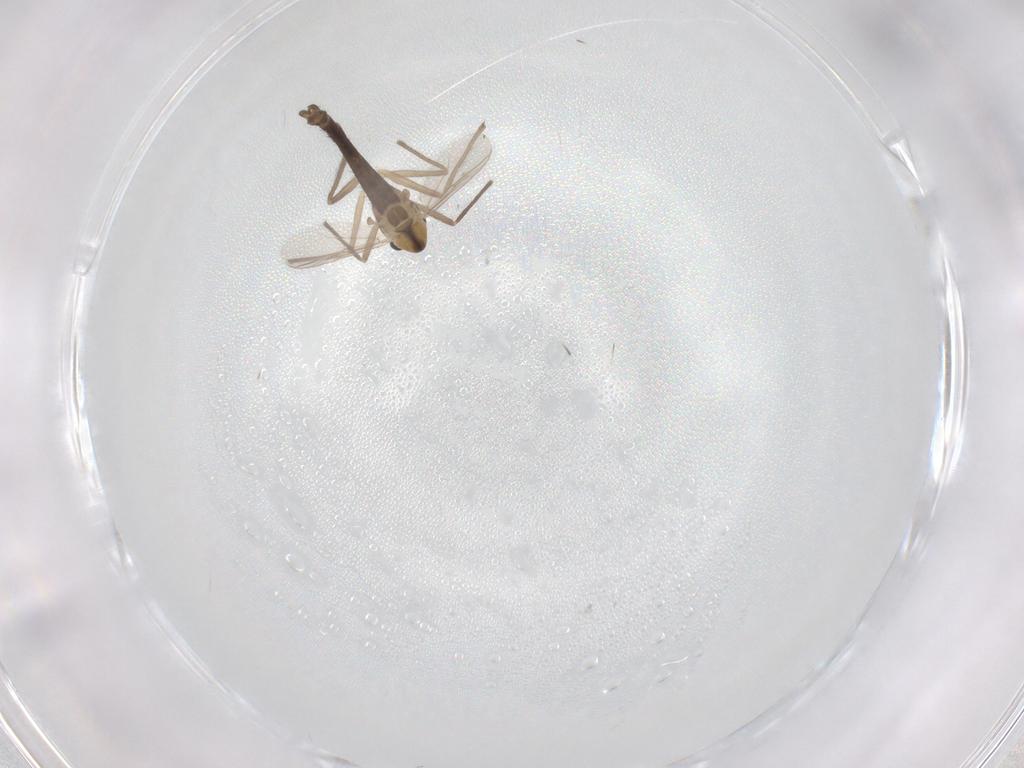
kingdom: Animalia
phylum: Arthropoda
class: Insecta
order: Diptera
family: Chironomidae
